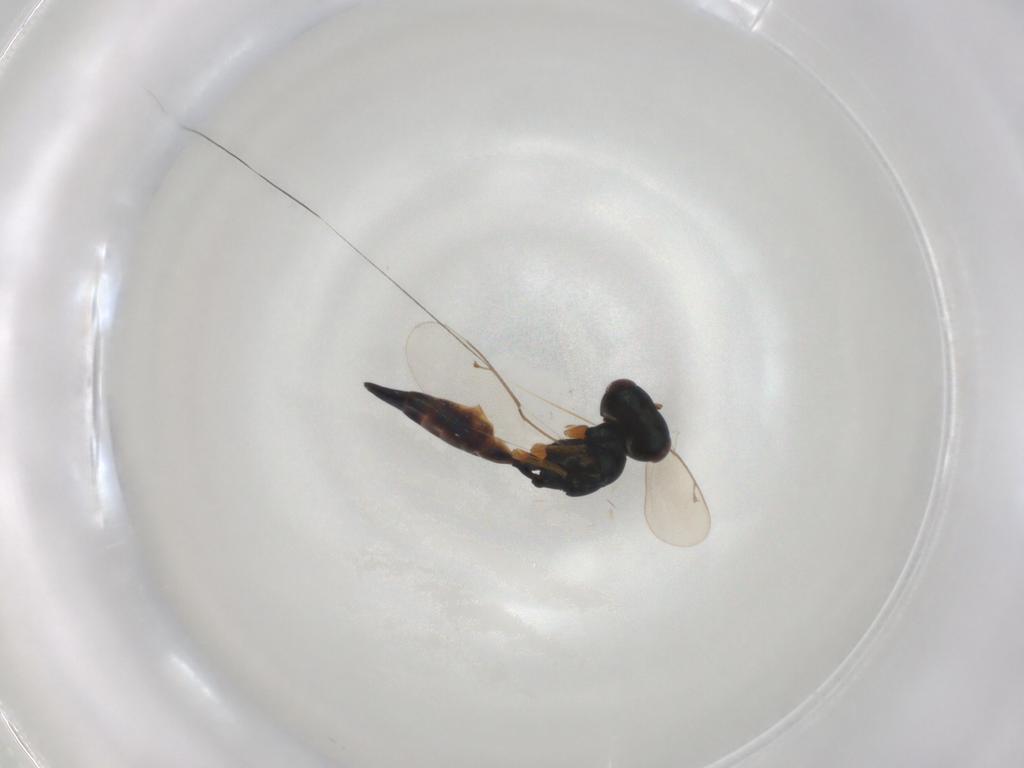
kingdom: Animalia
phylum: Arthropoda
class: Insecta
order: Hymenoptera
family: Pteromalidae
